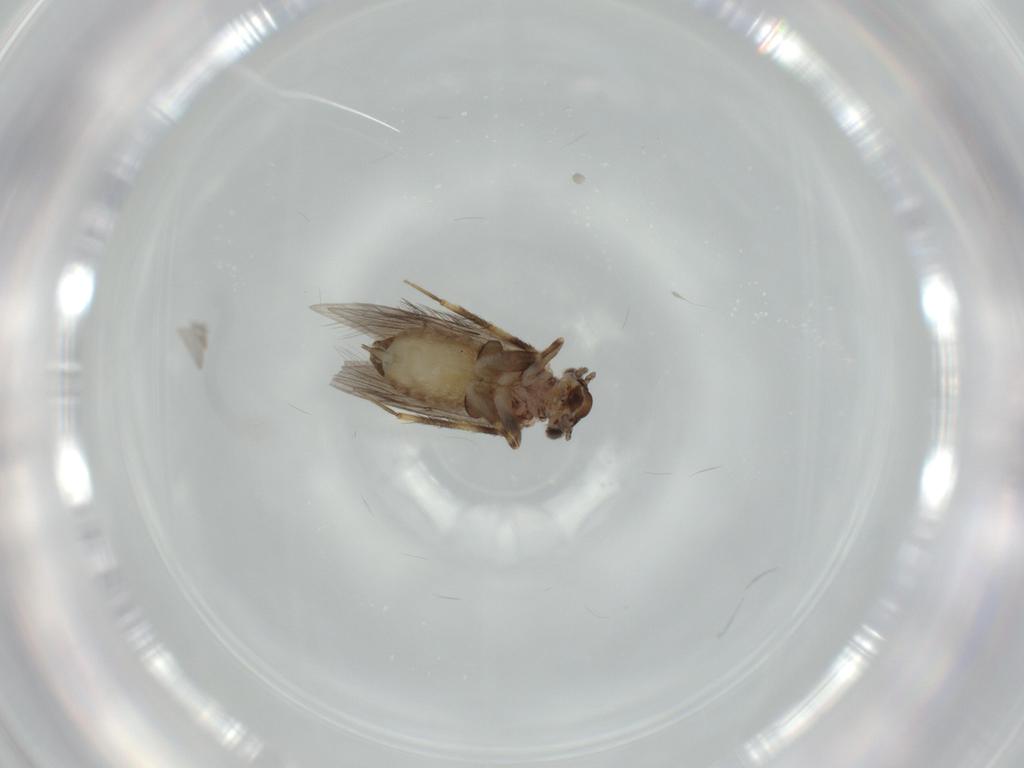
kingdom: Animalia
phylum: Arthropoda
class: Insecta
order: Psocodea
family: Lepidopsocidae
